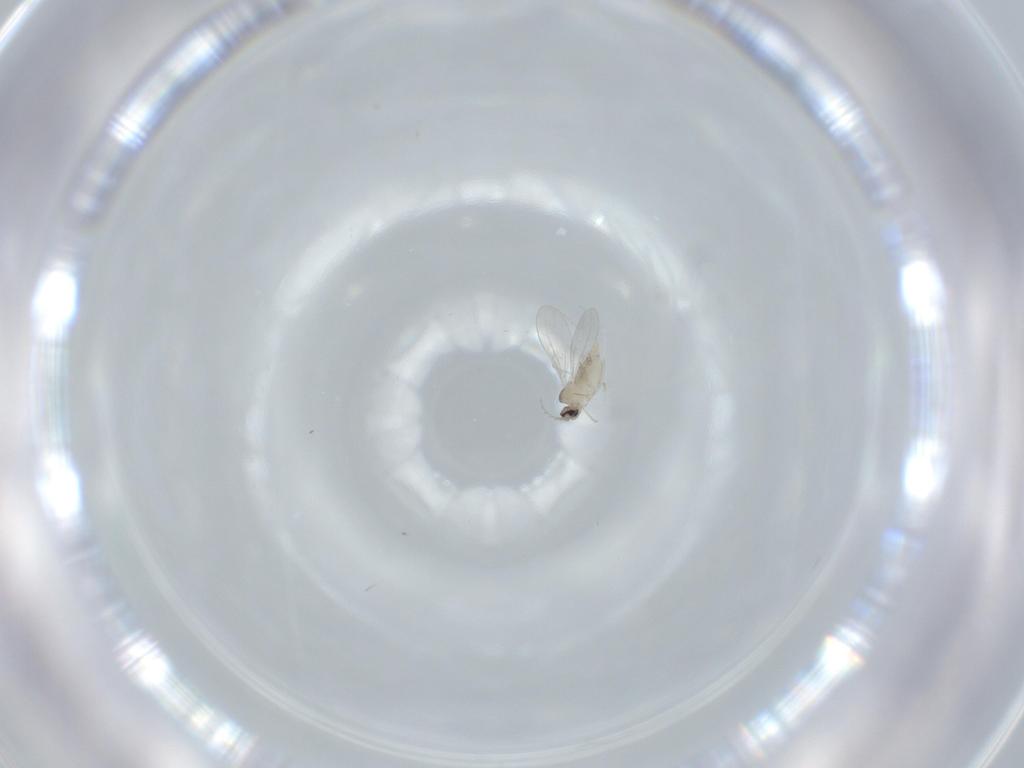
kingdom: Animalia
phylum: Arthropoda
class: Insecta
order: Diptera
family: Cecidomyiidae
